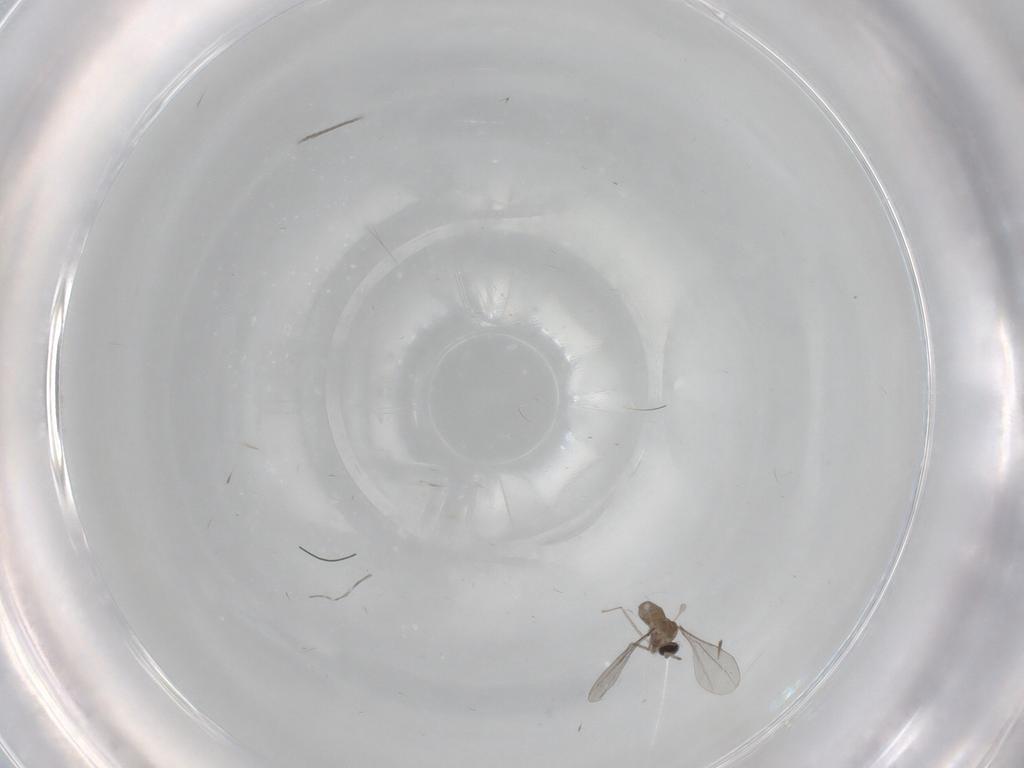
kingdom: Animalia
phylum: Arthropoda
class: Insecta
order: Diptera
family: Cecidomyiidae
